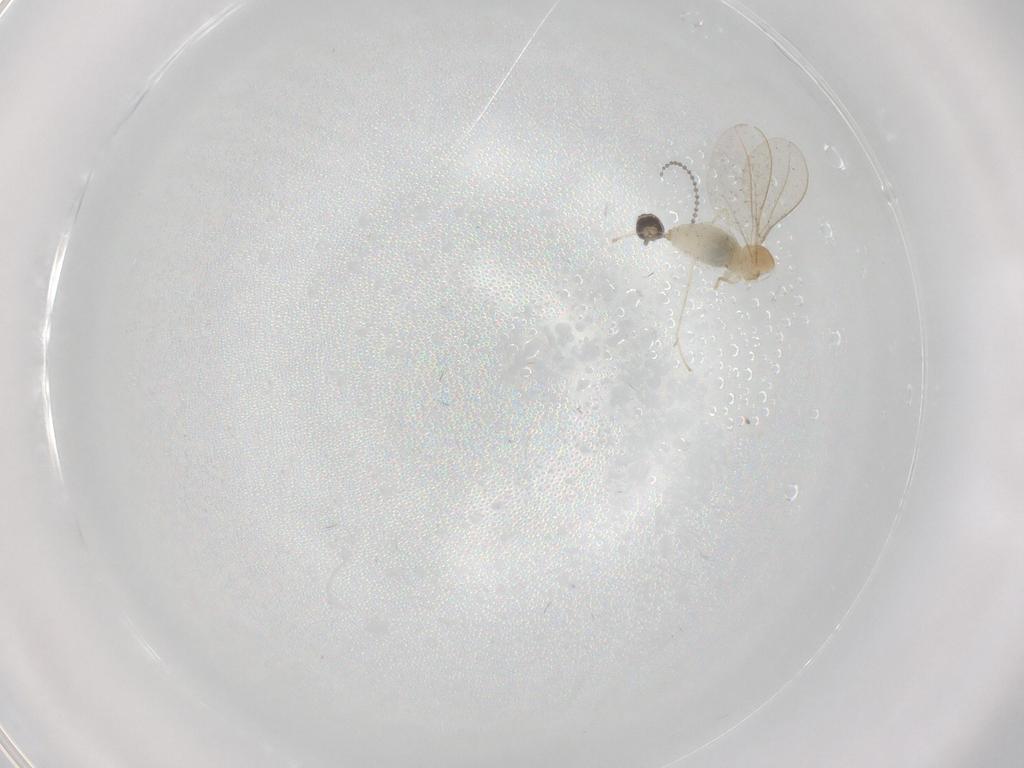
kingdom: Animalia
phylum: Arthropoda
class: Insecta
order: Diptera
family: Cecidomyiidae
